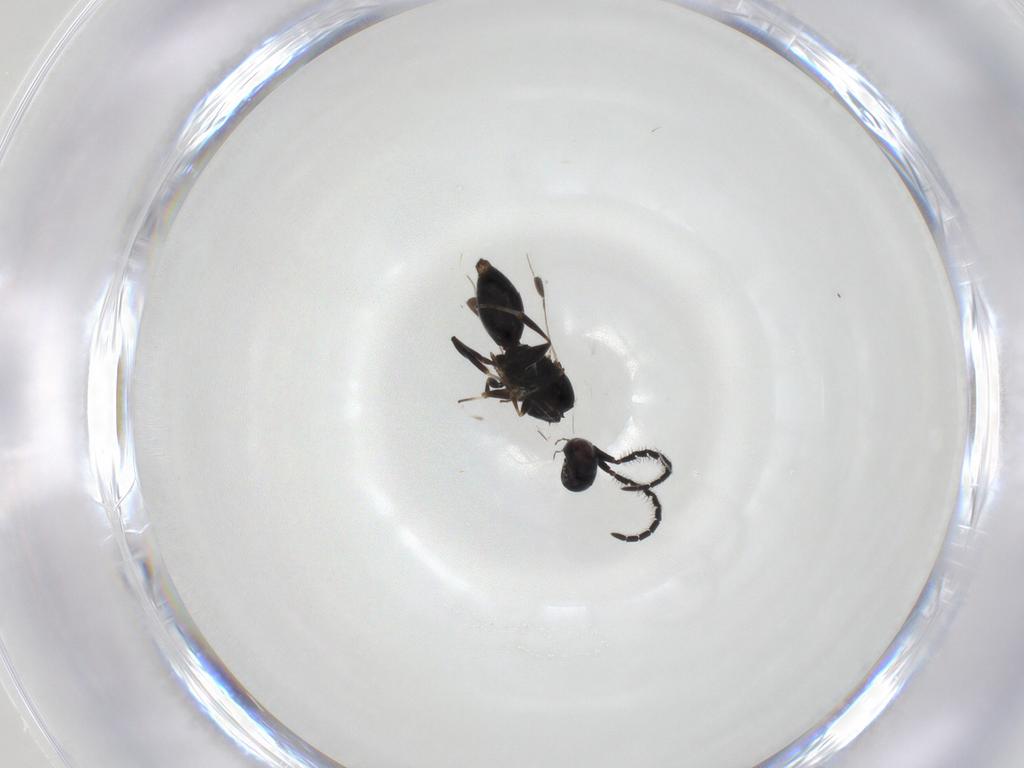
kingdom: Animalia
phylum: Arthropoda
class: Insecta
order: Hymenoptera
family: Megaspilidae
